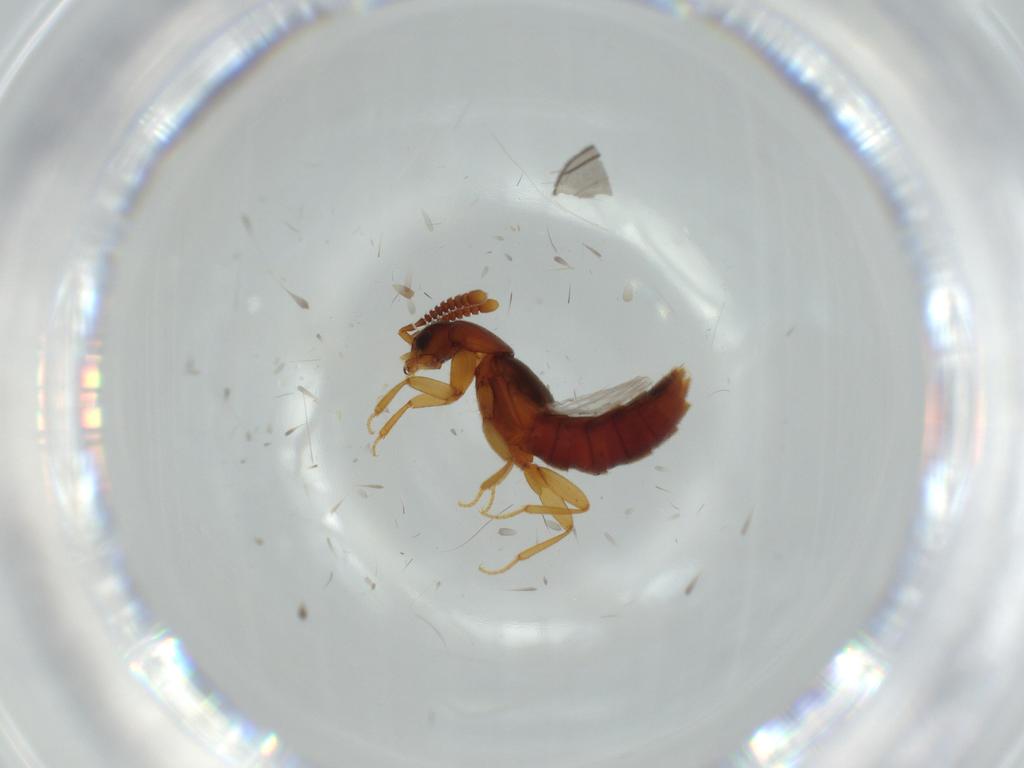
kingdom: Animalia
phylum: Arthropoda
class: Insecta
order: Coleoptera
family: Staphylinidae
